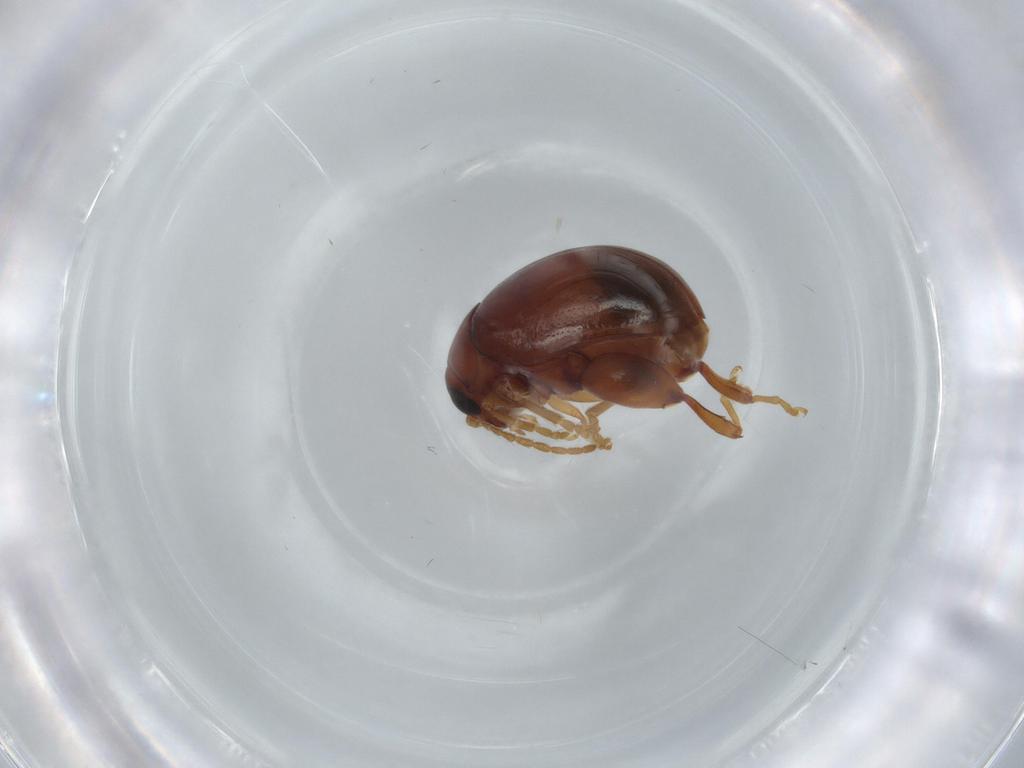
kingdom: Animalia
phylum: Arthropoda
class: Insecta
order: Coleoptera
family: Chrysomelidae
